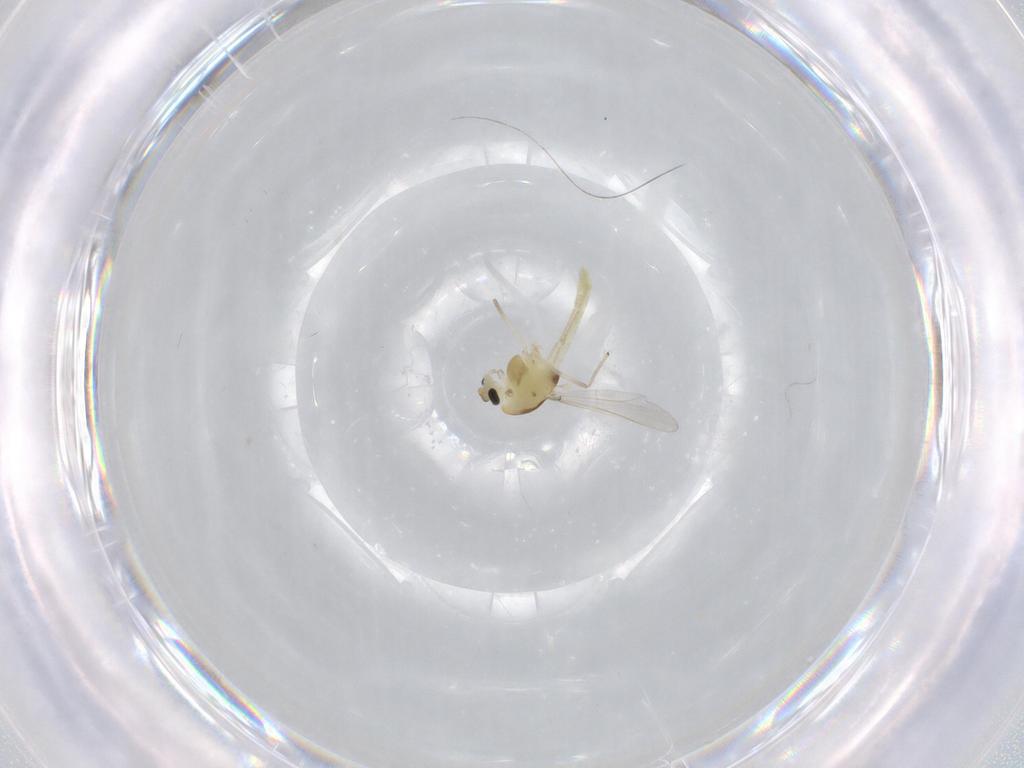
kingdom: Animalia
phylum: Arthropoda
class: Insecta
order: Diptera
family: Chironomidae
